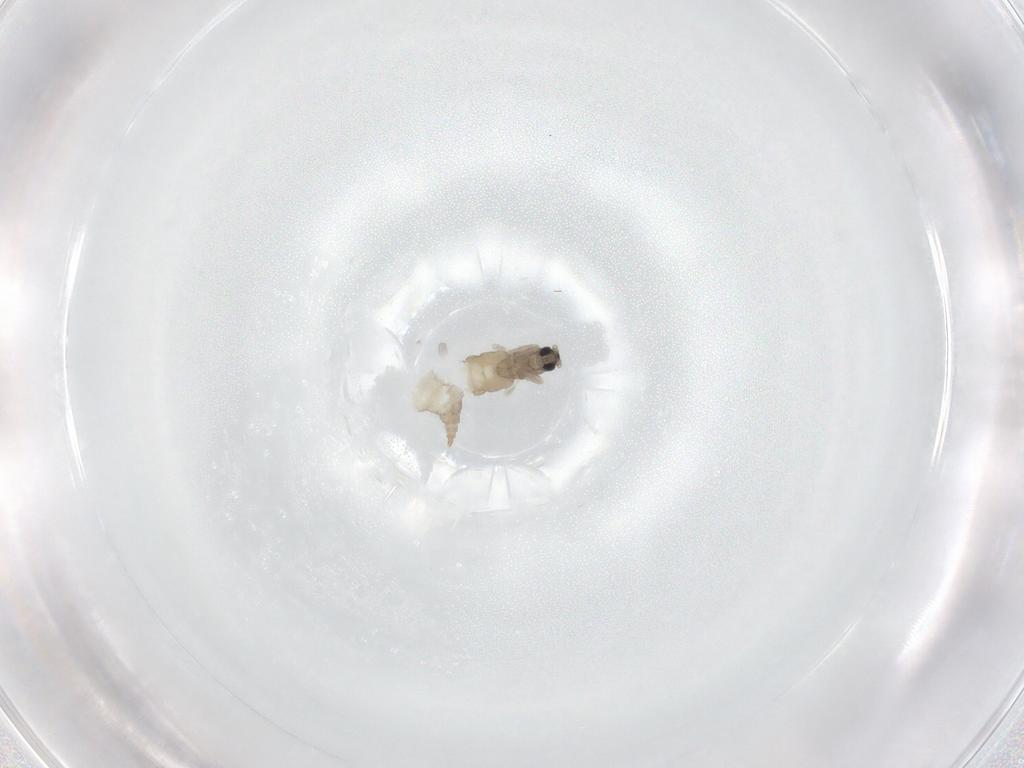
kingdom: Animalia
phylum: Arthropoda
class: Insecta
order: Diptera
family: Cecidomyiidae
